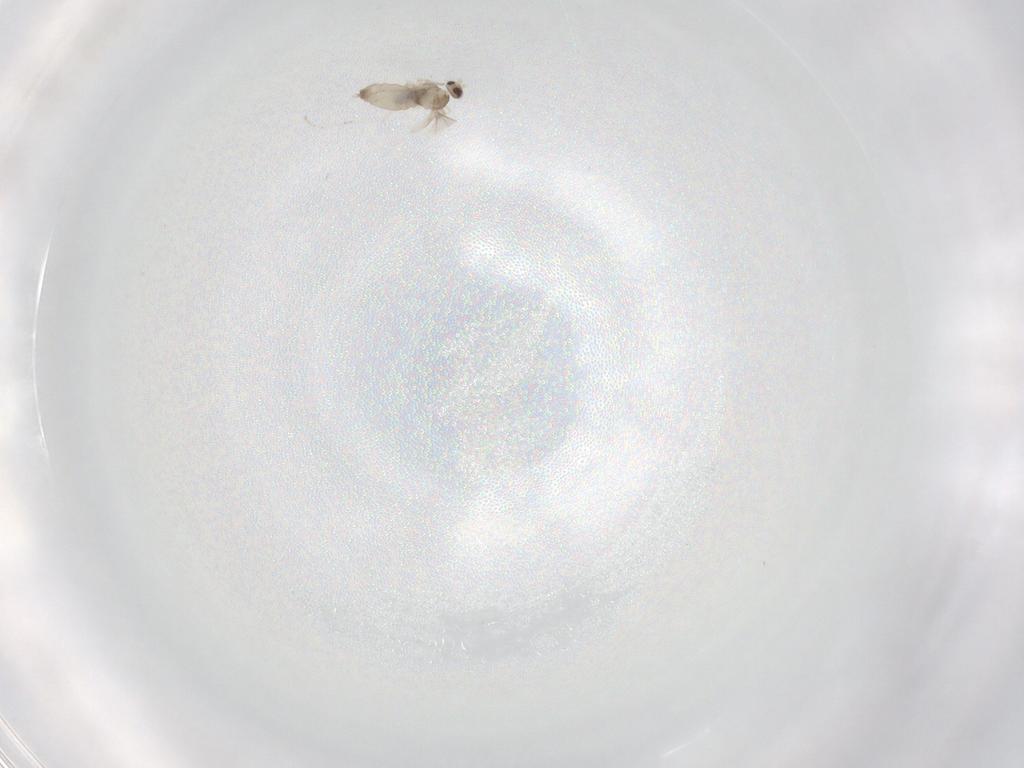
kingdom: Animalia
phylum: Arthropoda
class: Insecta
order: Diptera
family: Cecidomyiidae
